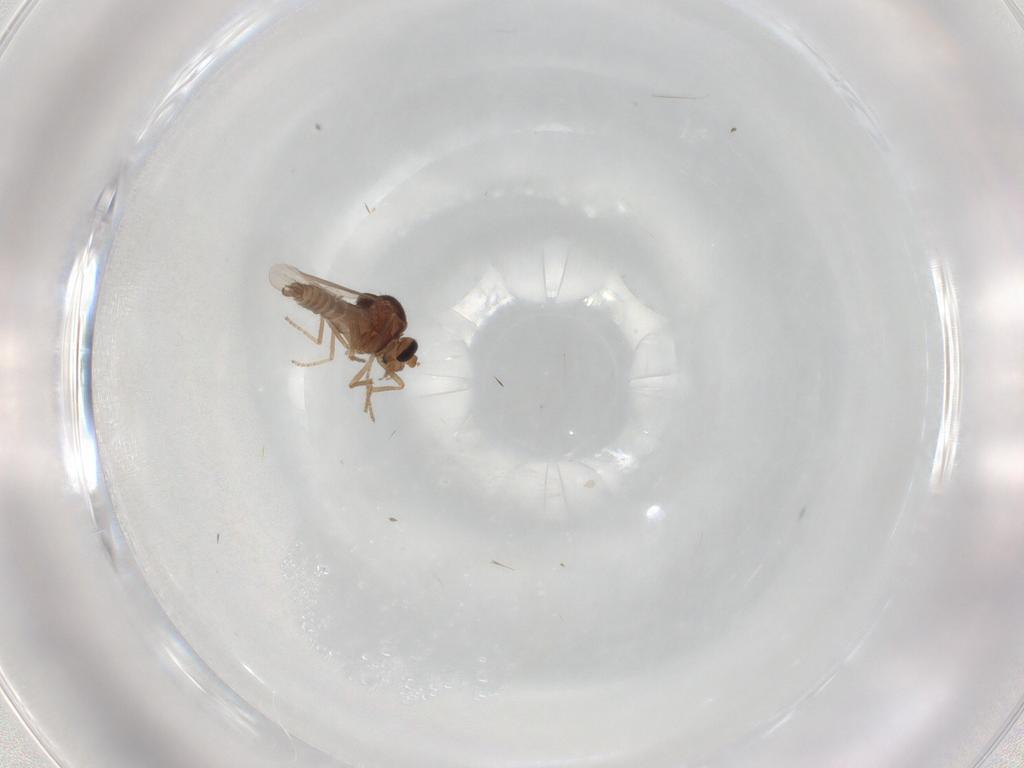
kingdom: Animalia
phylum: Arthropoda
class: Insecta
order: Diptera
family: Ceratopogonidae
